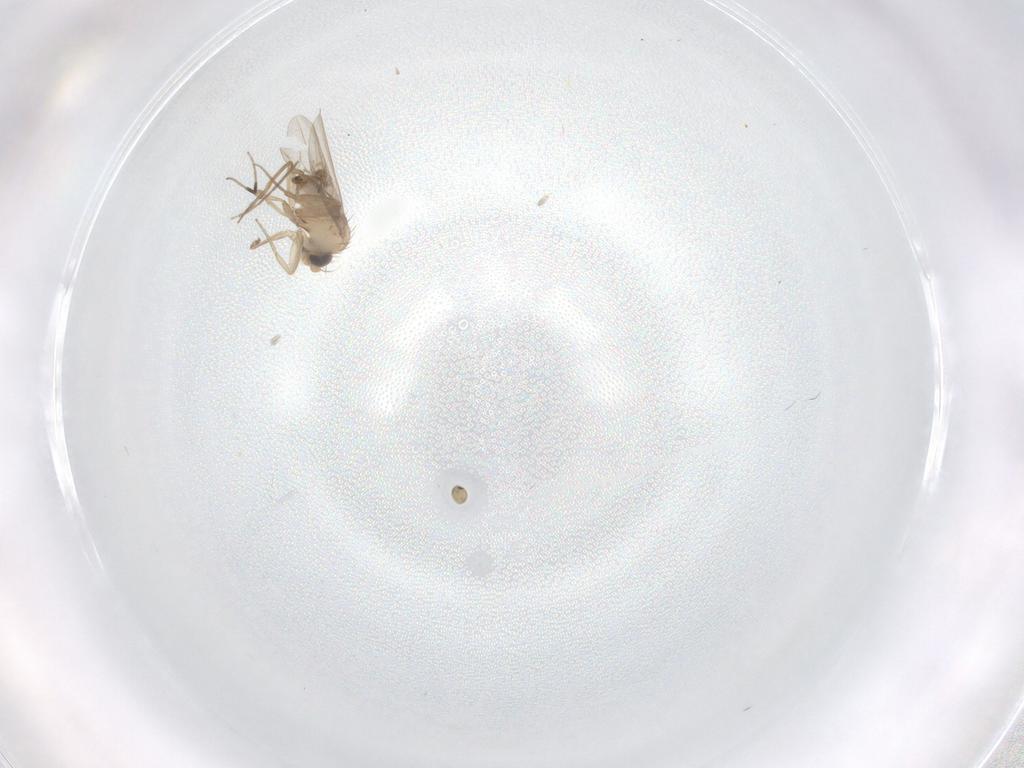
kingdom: Animalia
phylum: Arthropoda
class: Insecta
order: Diptera
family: Phoridae
